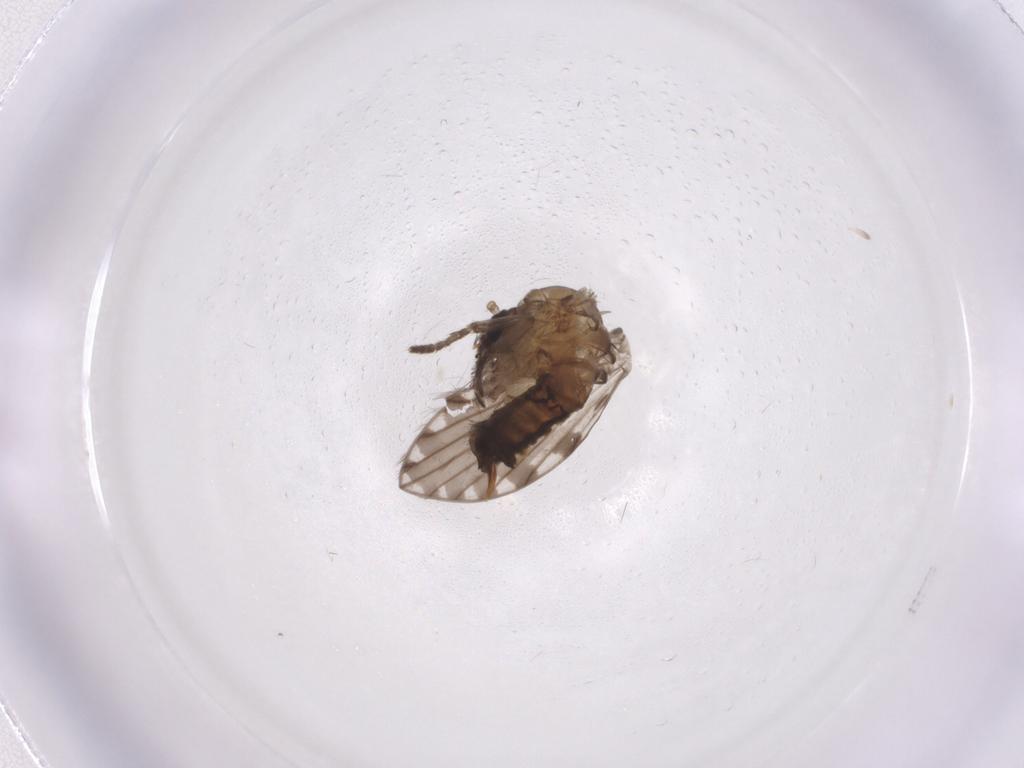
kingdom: Animalia
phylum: Arthropoda
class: Insecta
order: Diptera
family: Psychodidae
